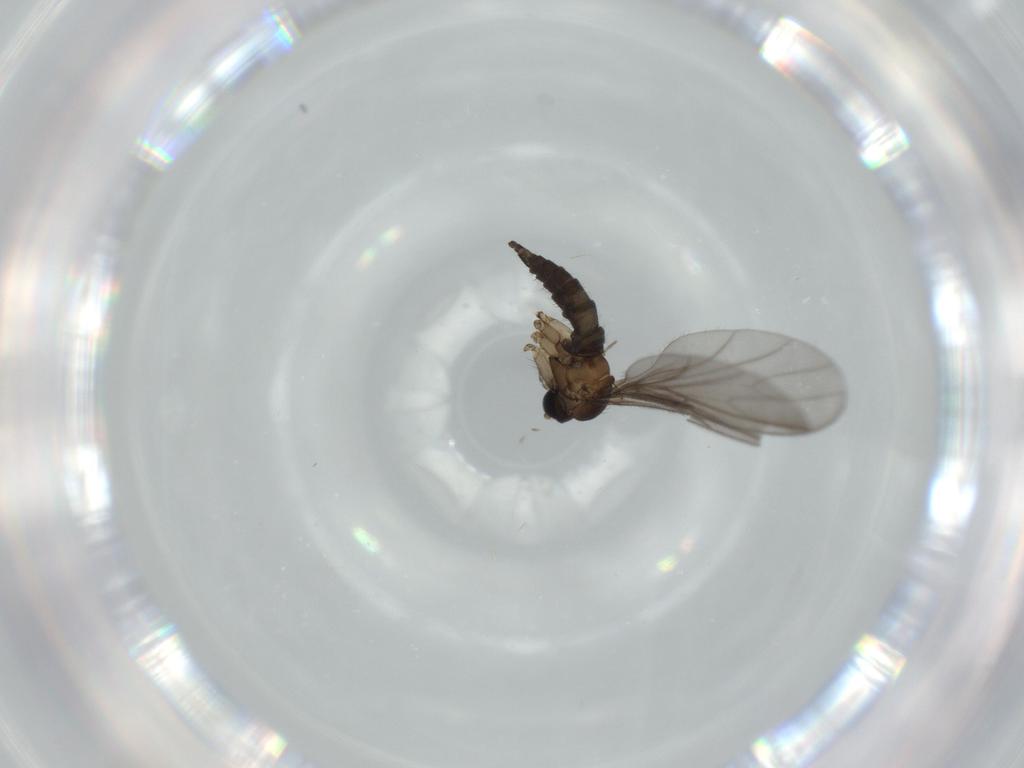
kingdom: Animalia
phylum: Arthropoda
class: Insecta
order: Diptera
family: Sciaridae
